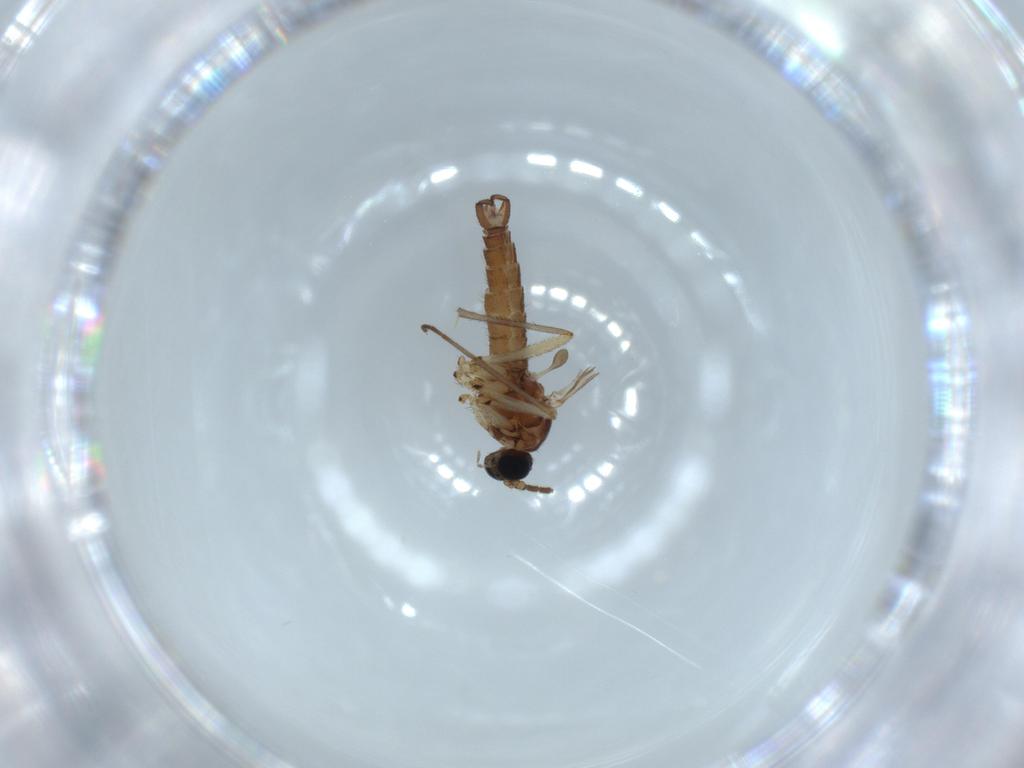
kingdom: Animalia
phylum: Arthropoda
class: Insecta
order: Diptera
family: Sciaridae
